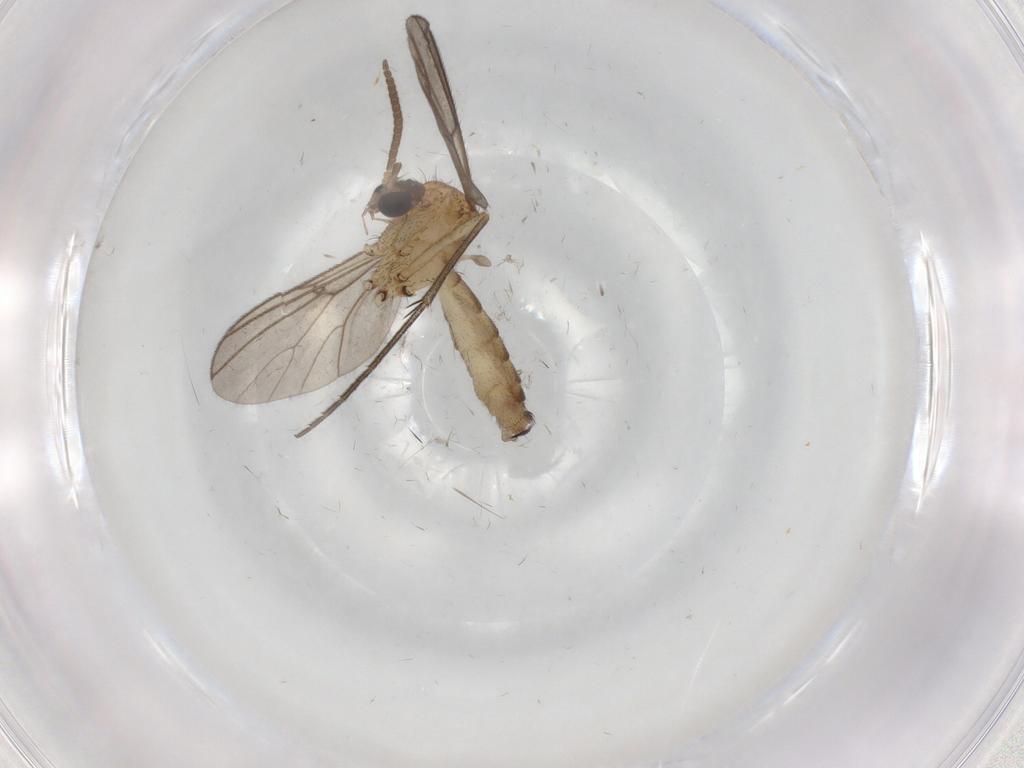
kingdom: Animalia
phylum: Arthropoda
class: Insecta
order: Diptera
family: Mycetophilidae
